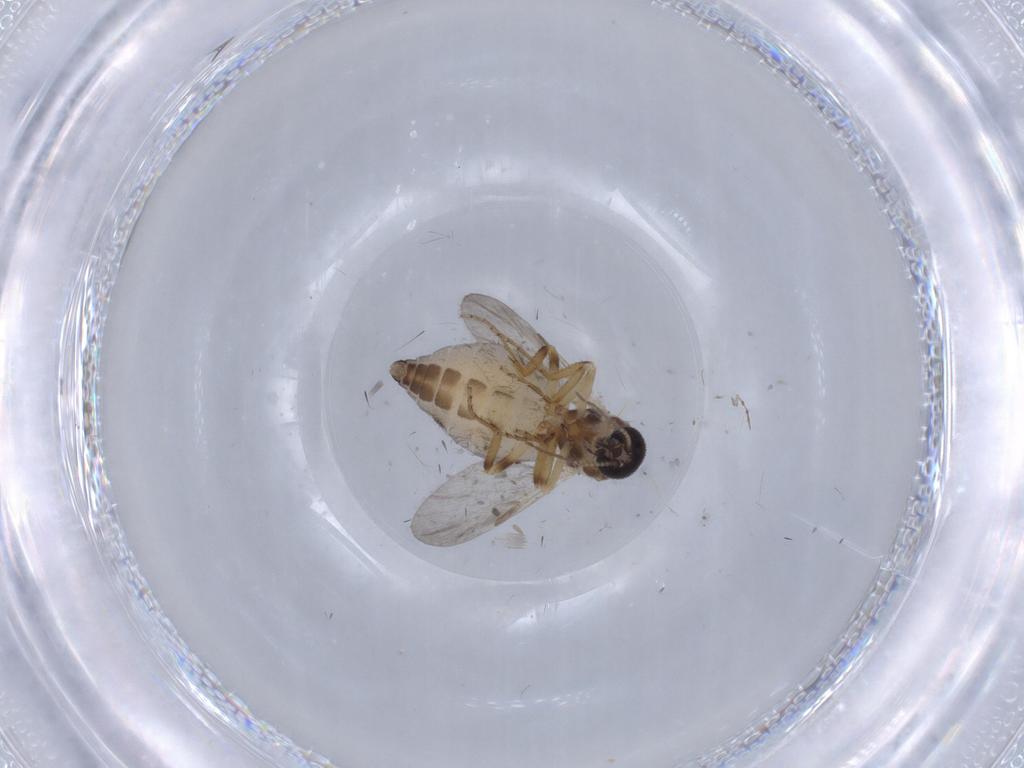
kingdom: Animalia
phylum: Arthropoda
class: Insecta
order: Diptera
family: Ceratopogonidae
